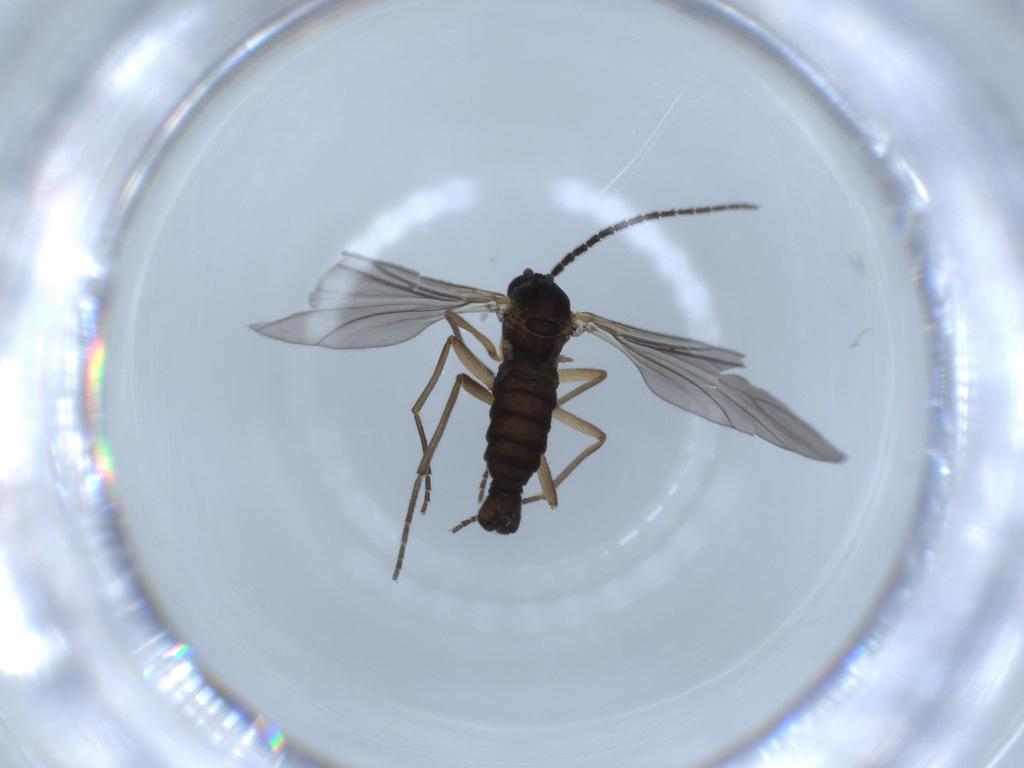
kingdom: Animalia
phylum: Arthropoda
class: Insecta
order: Diptera
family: Sciaridae
